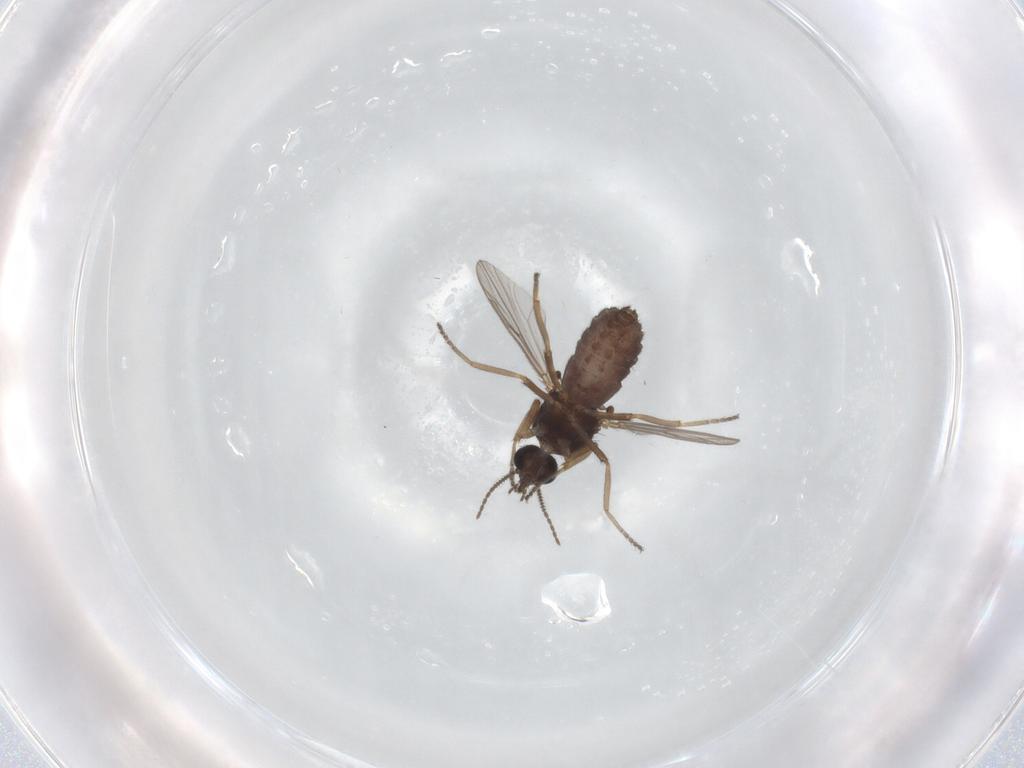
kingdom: Animalia
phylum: Arthropoda
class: Insecta
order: Diptera
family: Ceratopogonidae
